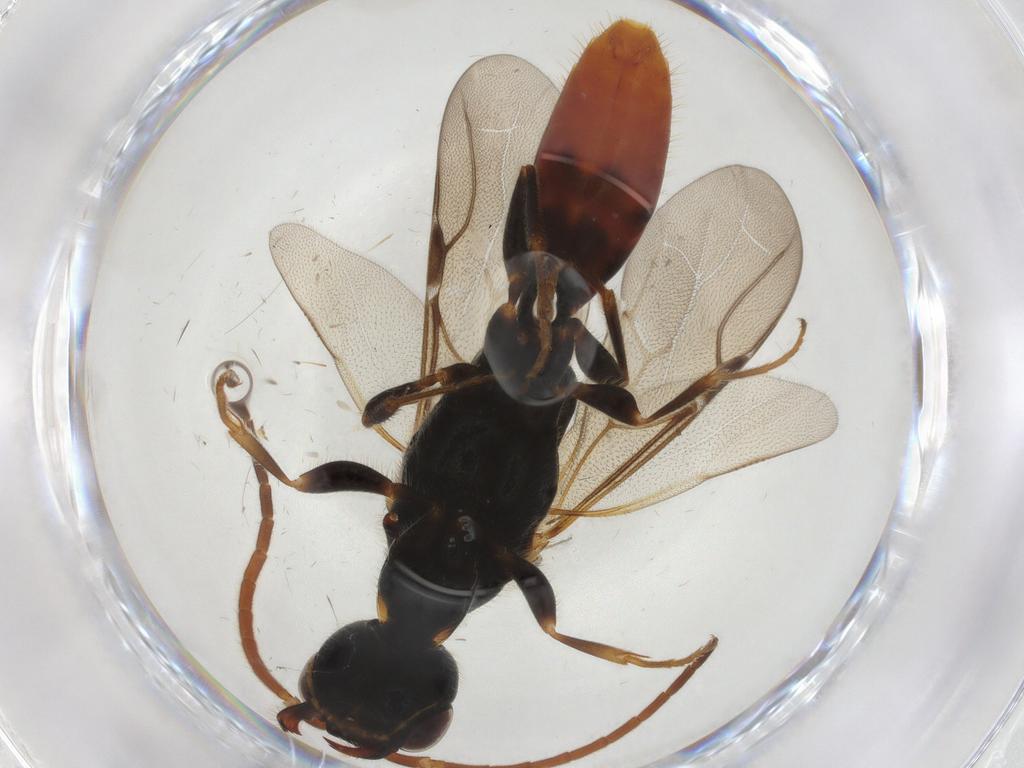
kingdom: Animalia
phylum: Arthropoda
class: Insecta
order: Hymenoptera
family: Bethylidae
